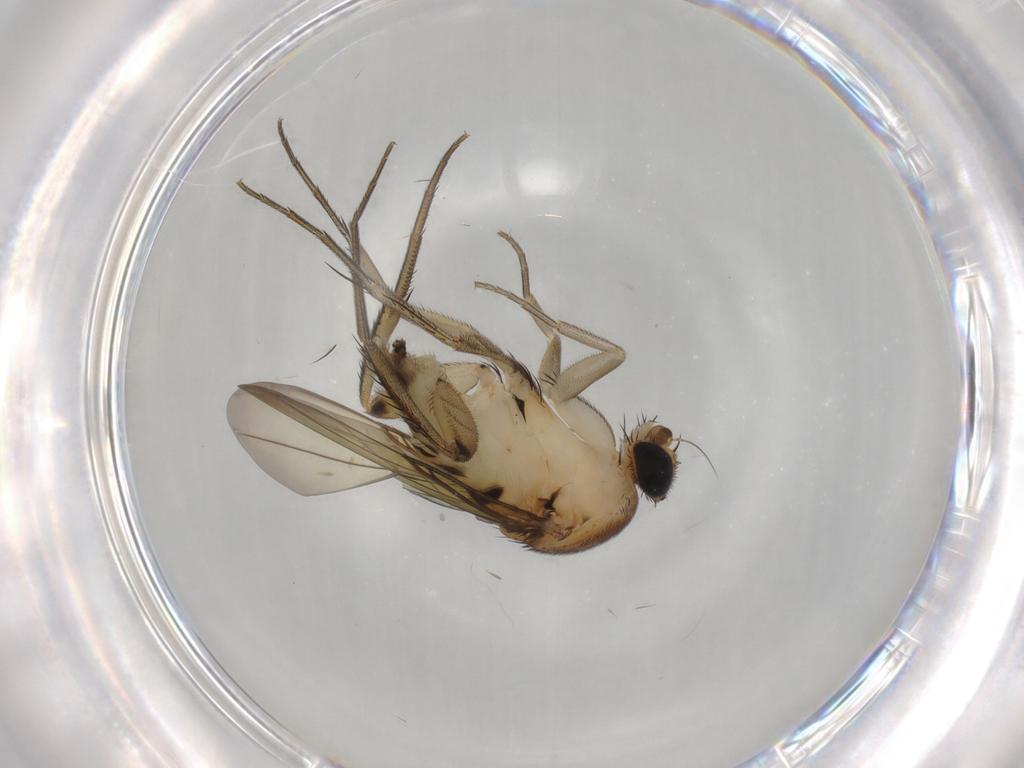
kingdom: Animalia
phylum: Arthropoda
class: Insecta
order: Diptera
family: Phoridae
